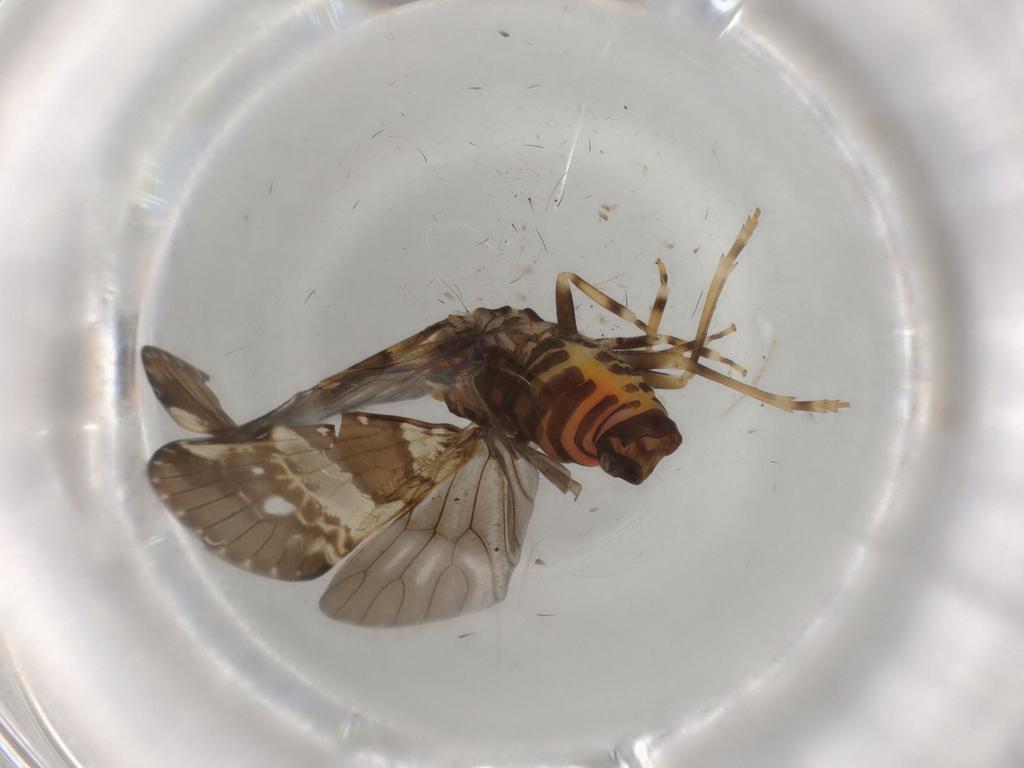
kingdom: Animalia
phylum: Arthropoda
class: Insecta
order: Hemiptera
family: Cixiidae
